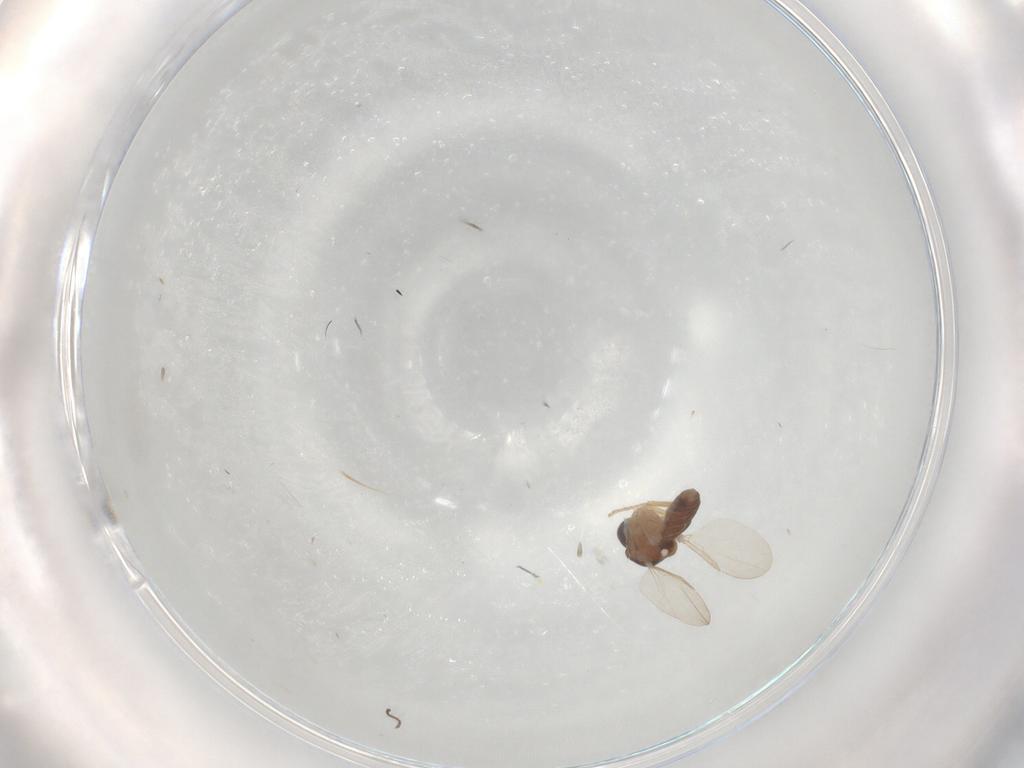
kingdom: Animalia
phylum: Arthropoda
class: Insecta
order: Diptera
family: Ceratopogonidae
